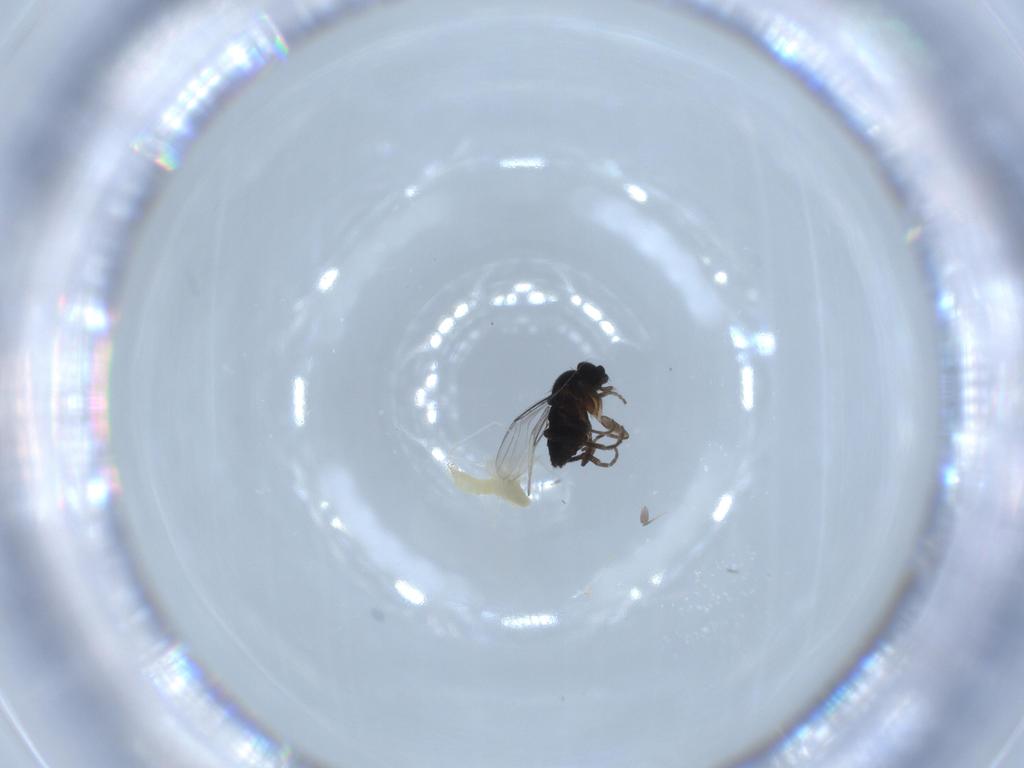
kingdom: Animalia
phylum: Arthropoda
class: Insecta
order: Diptera
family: Phoridae
